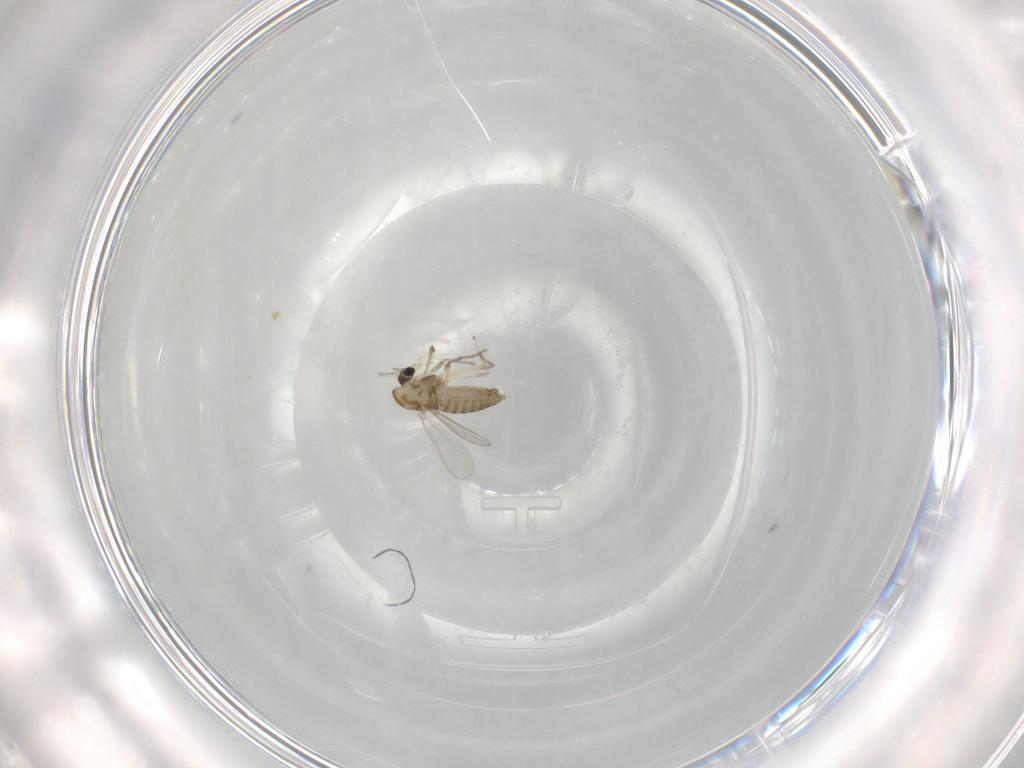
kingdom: Animalia
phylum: Arthropoda
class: Insecta
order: Diptera
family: Chironomidae
